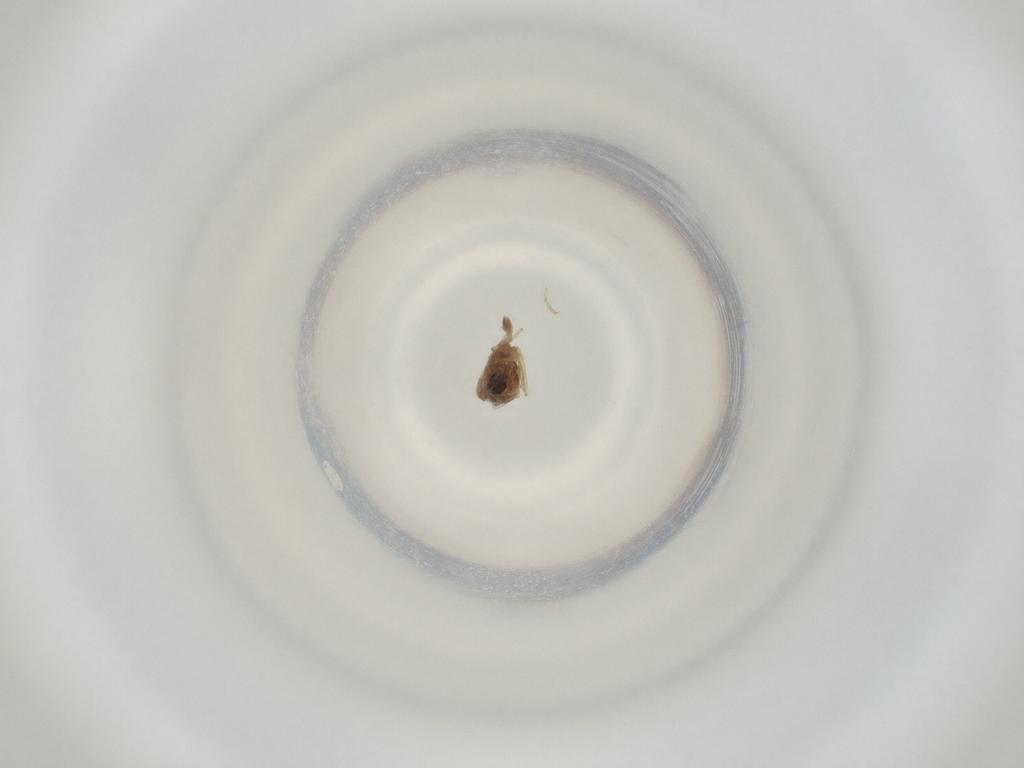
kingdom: Animalia
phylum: Arthropoda
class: Insecta
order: Diptera
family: Cecidomyiidae
